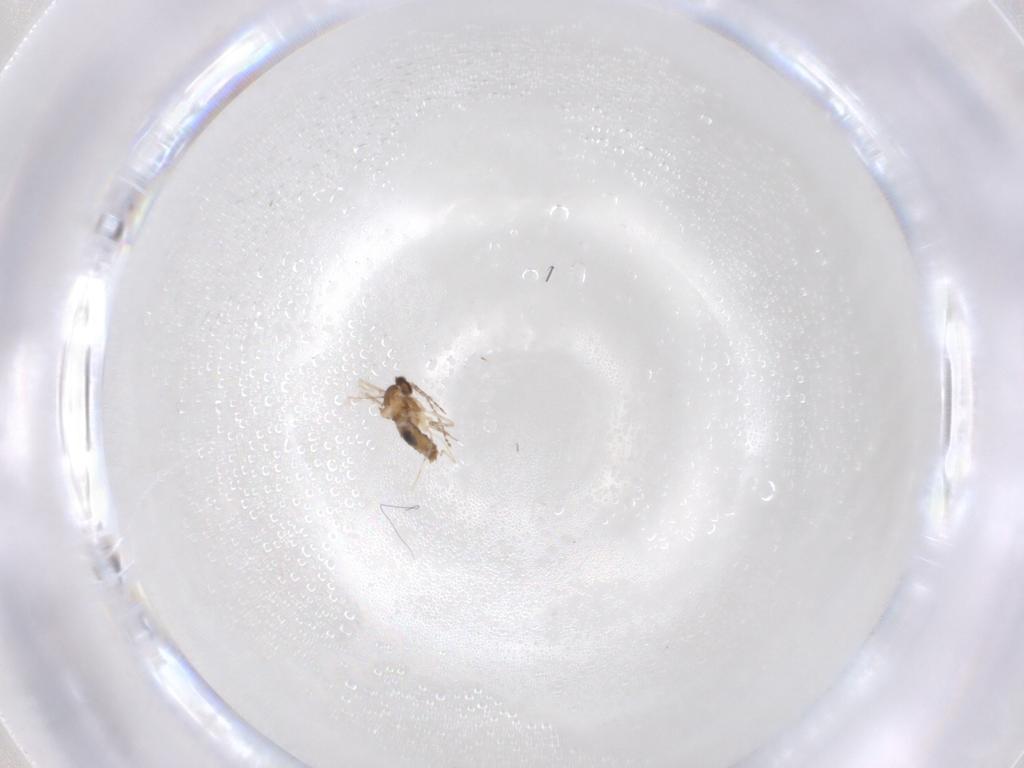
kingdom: Animalia
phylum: Arthropoda
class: Insecta
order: Diptera
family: Cecidomyiidae
